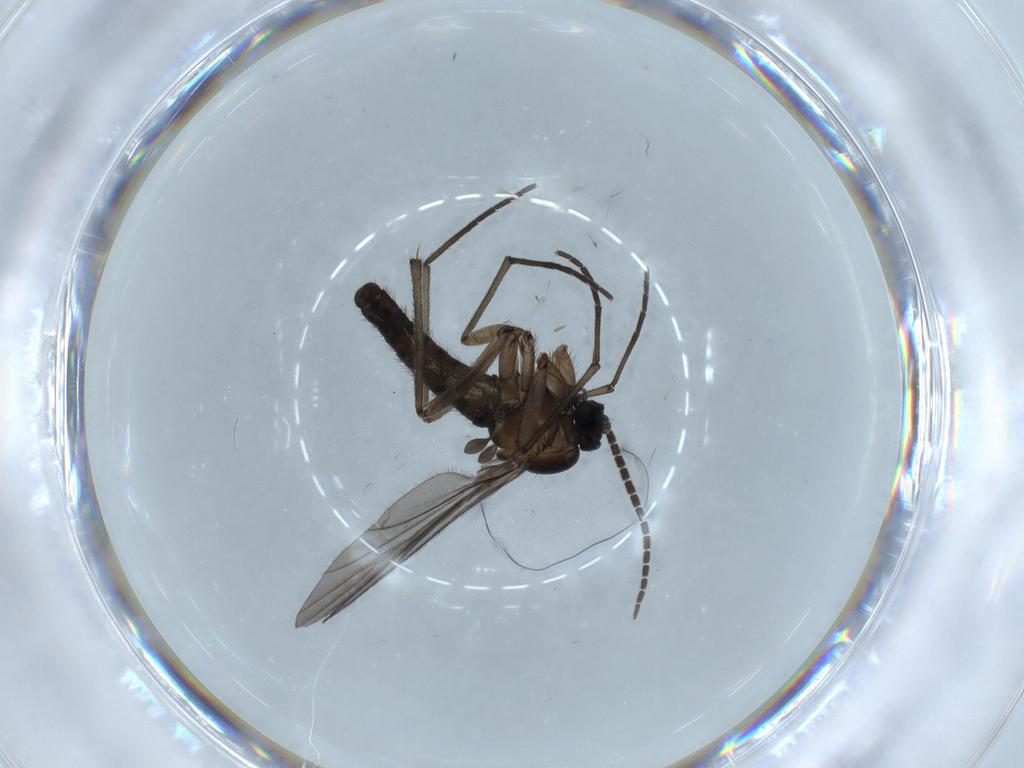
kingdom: Animalia
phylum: Arthropoda
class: Insecta
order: Diptera
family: Sciaridae
